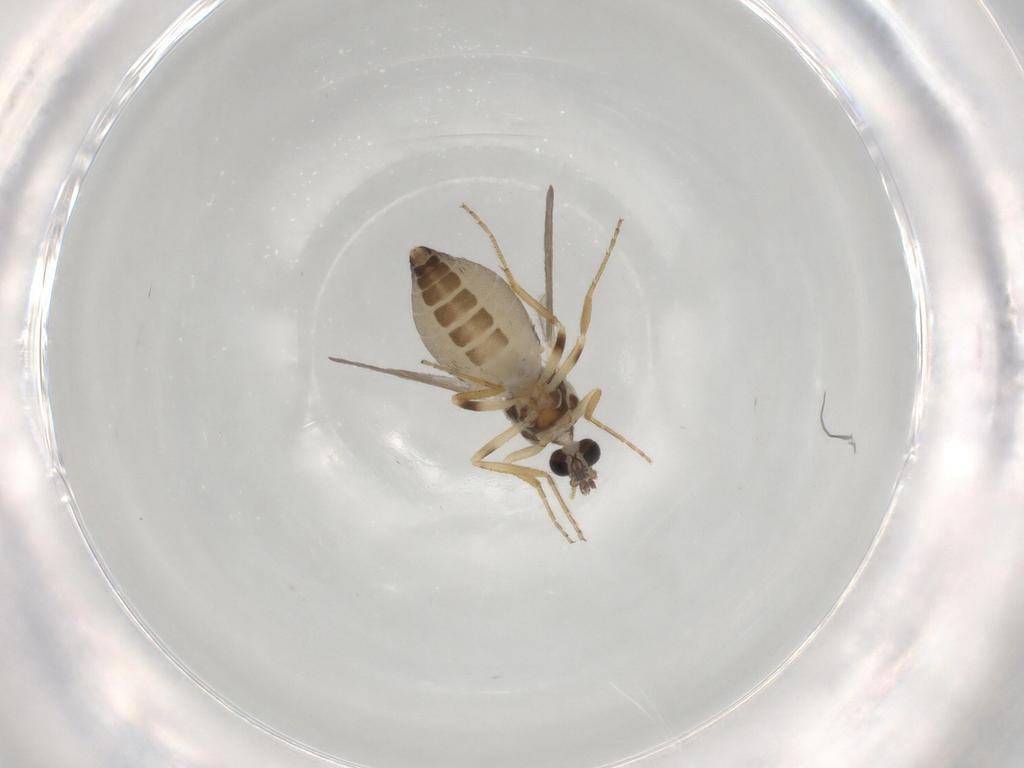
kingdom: Animalia
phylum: Arthropoda
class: Insecta
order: Diptera
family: Ceratopogonidae
